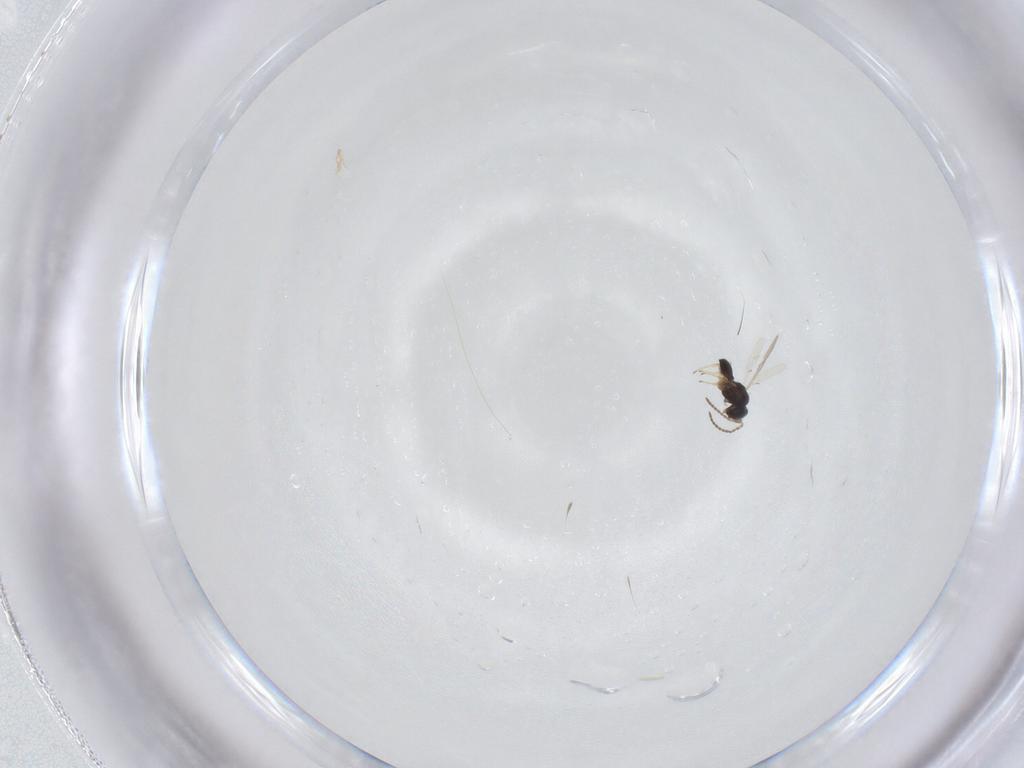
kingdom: Animalia
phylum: Arthropoda
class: Insecta
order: Hymenoptera
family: Scelionidae
